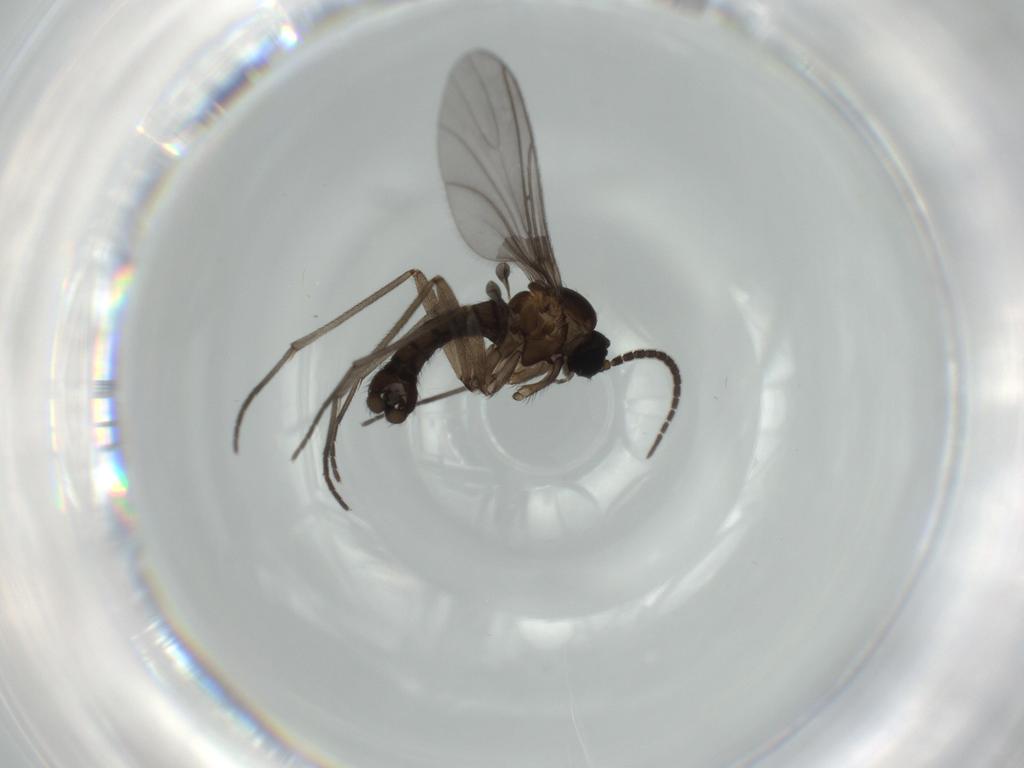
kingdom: Animalia
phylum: Arthropoda
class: Insecta
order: Diptera
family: Sciaridae
